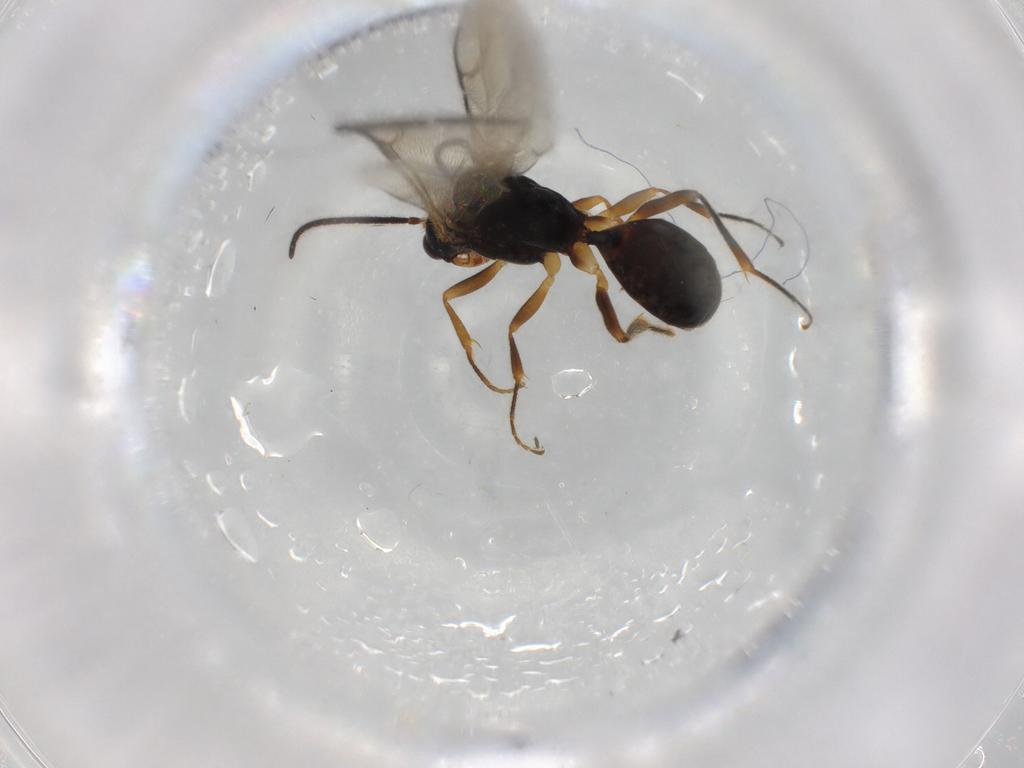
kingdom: Animalia
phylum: Arthropoda
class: Insecta
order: Hymenoptera
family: Bethylidae
